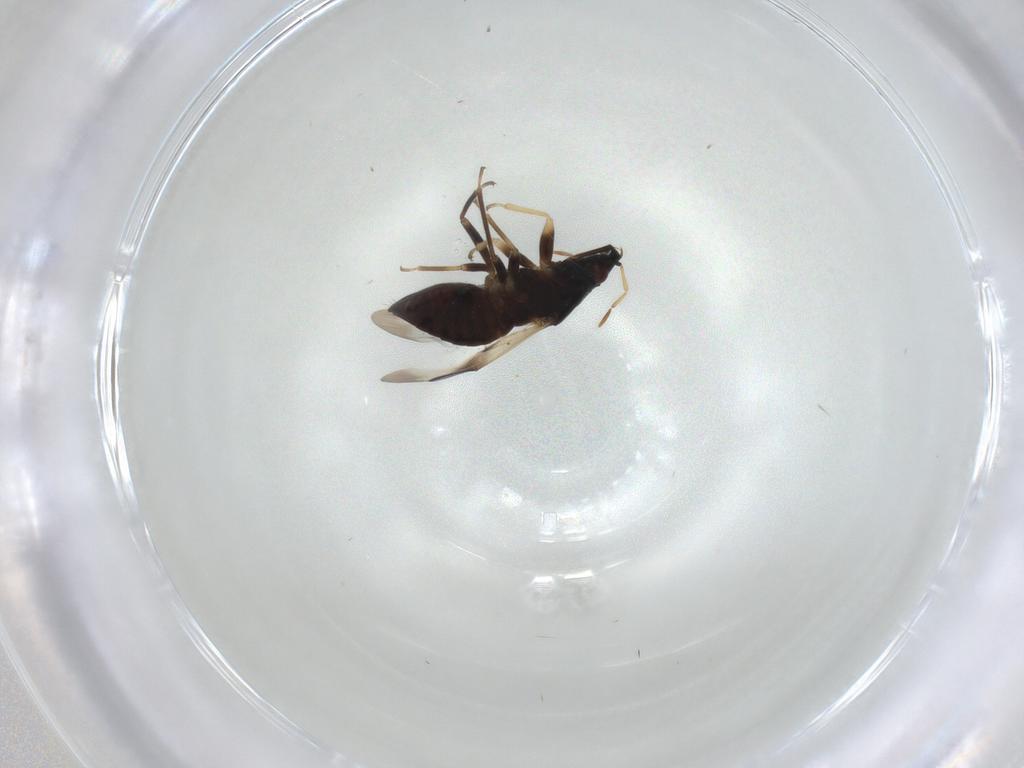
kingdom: Animalia
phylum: Arthropoda
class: Insecta
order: Hemiptera
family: Anthocoridae
